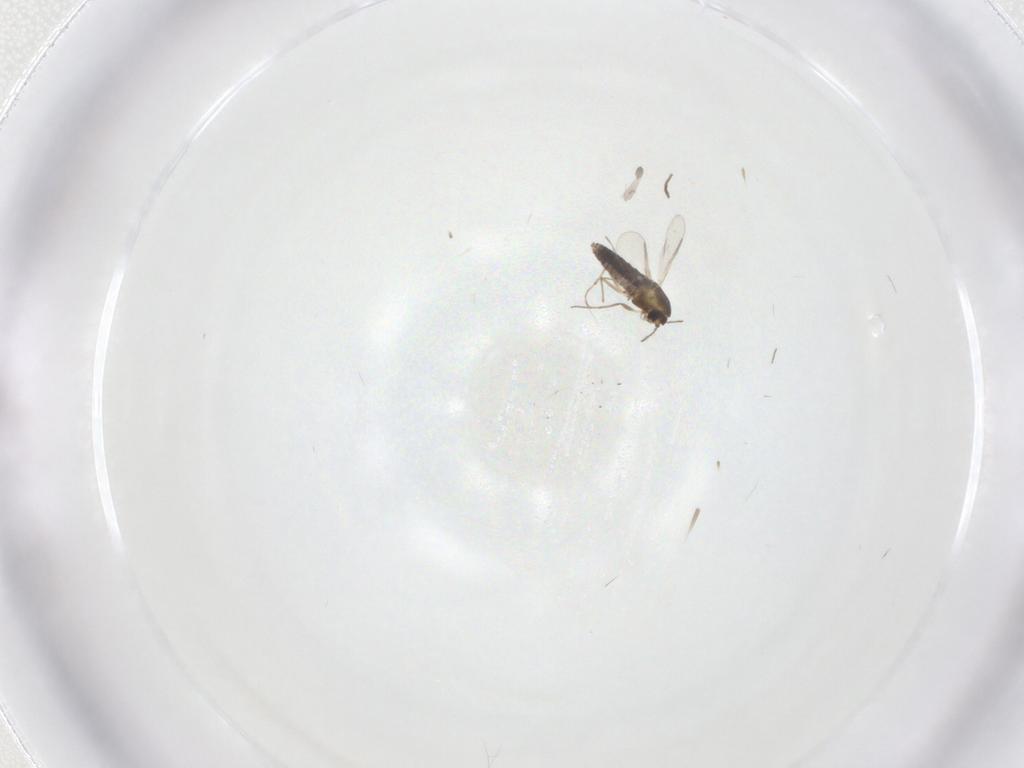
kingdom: Animalia
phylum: Arthropoda
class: Insecta
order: Diptera
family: Chironomidae
